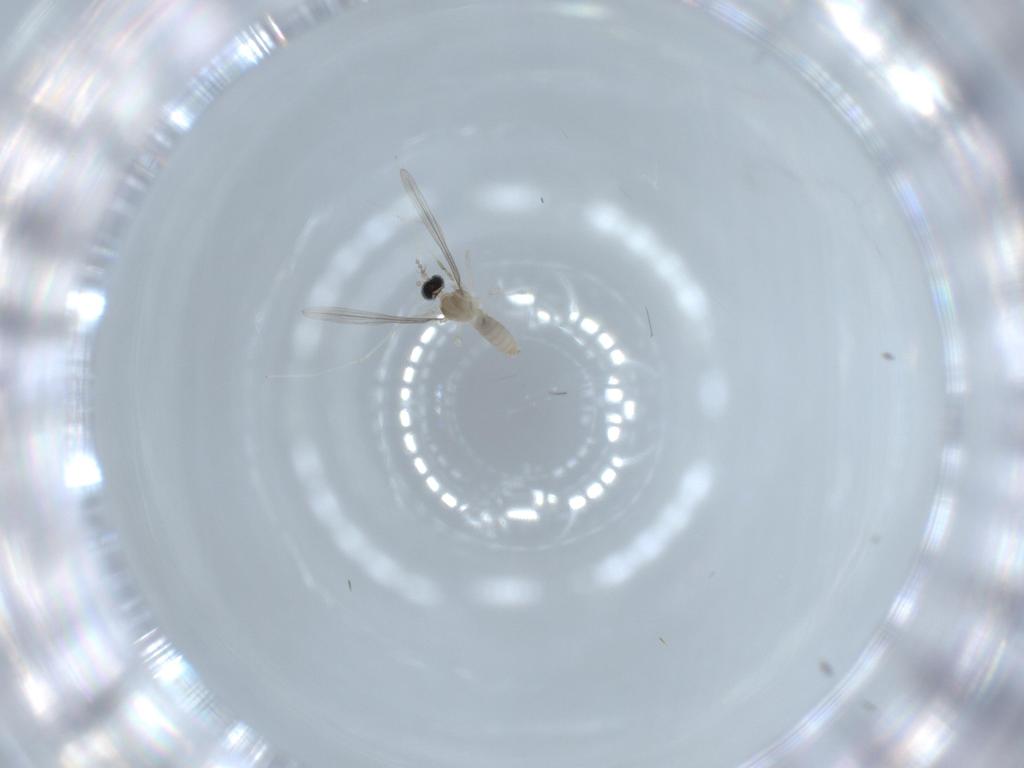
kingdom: Animalia
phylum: Arthropoda
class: Insecta
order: Diptera
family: Cecidomyiidae
